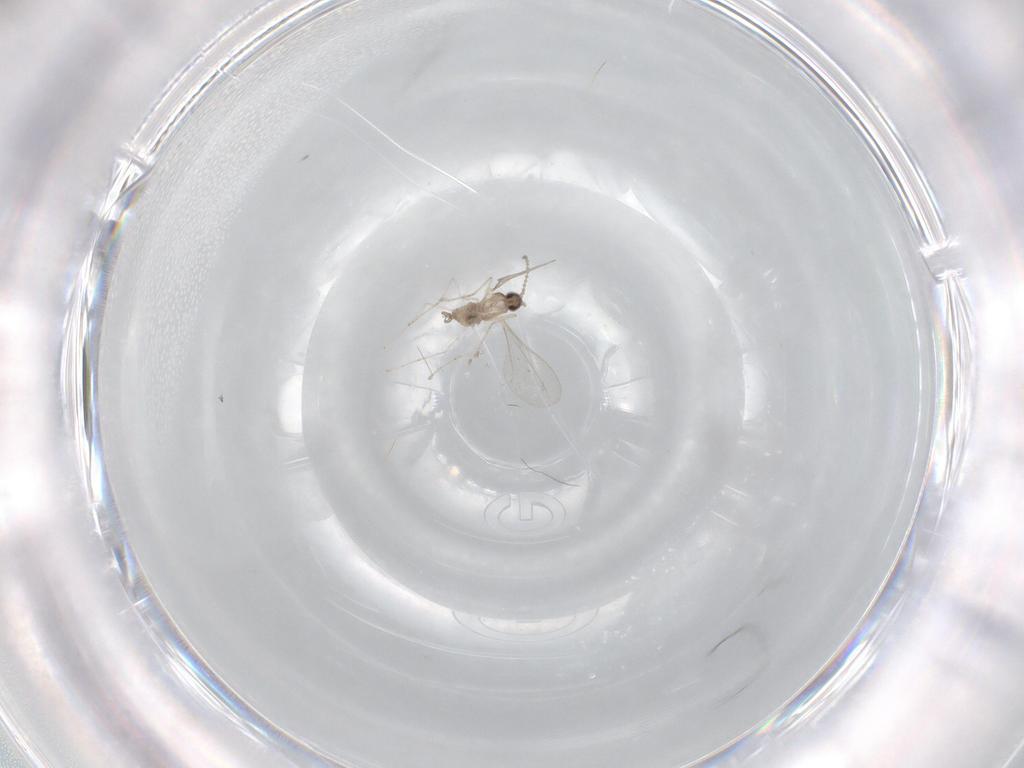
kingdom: Animalia
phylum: Arthropoda
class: Insecta
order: Diptera
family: Cecidomyiidae
